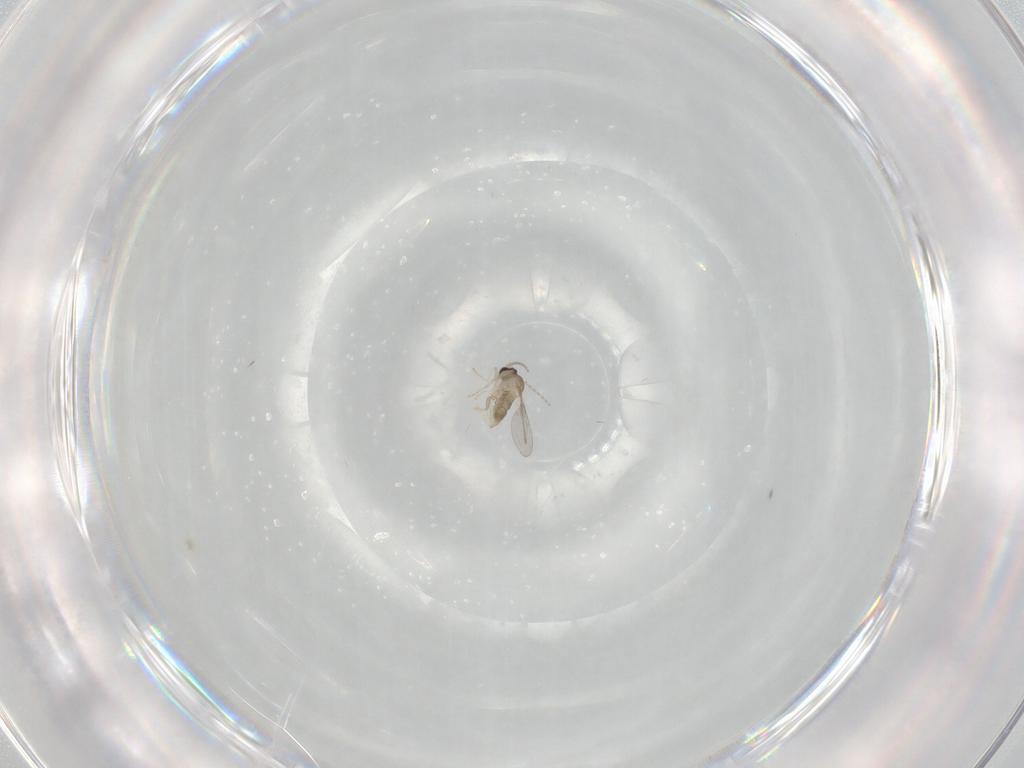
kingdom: Animalia
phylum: Arthropoda
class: Insecta
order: Diptera
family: Cecidomyiidae
